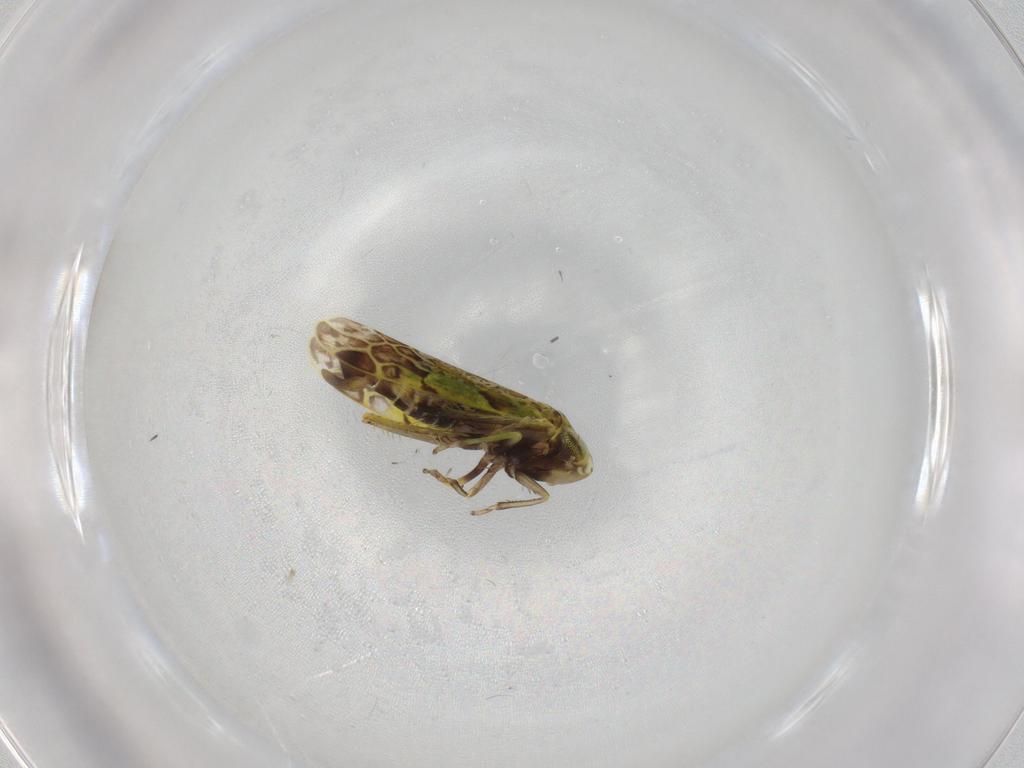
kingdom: Animalia
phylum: Arthropoda
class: Insecta
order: Hemiptera
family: Cicadellidae
